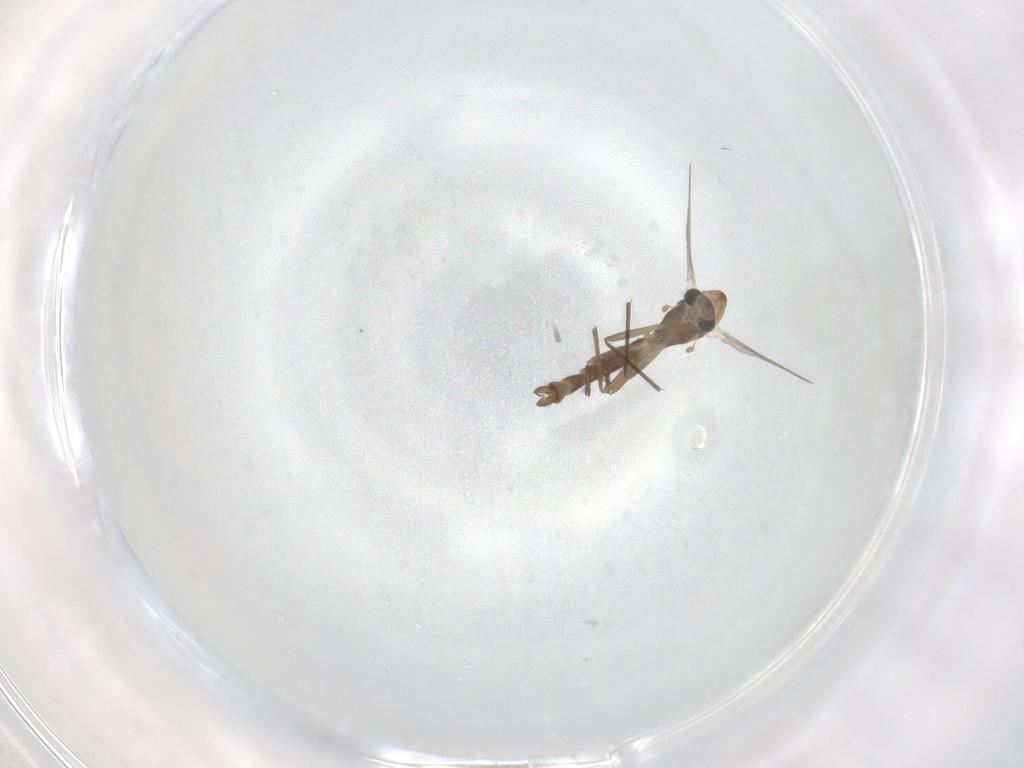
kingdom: Animalia
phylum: Arthropoda
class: Insecta
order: Diptera
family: Chironomidae
